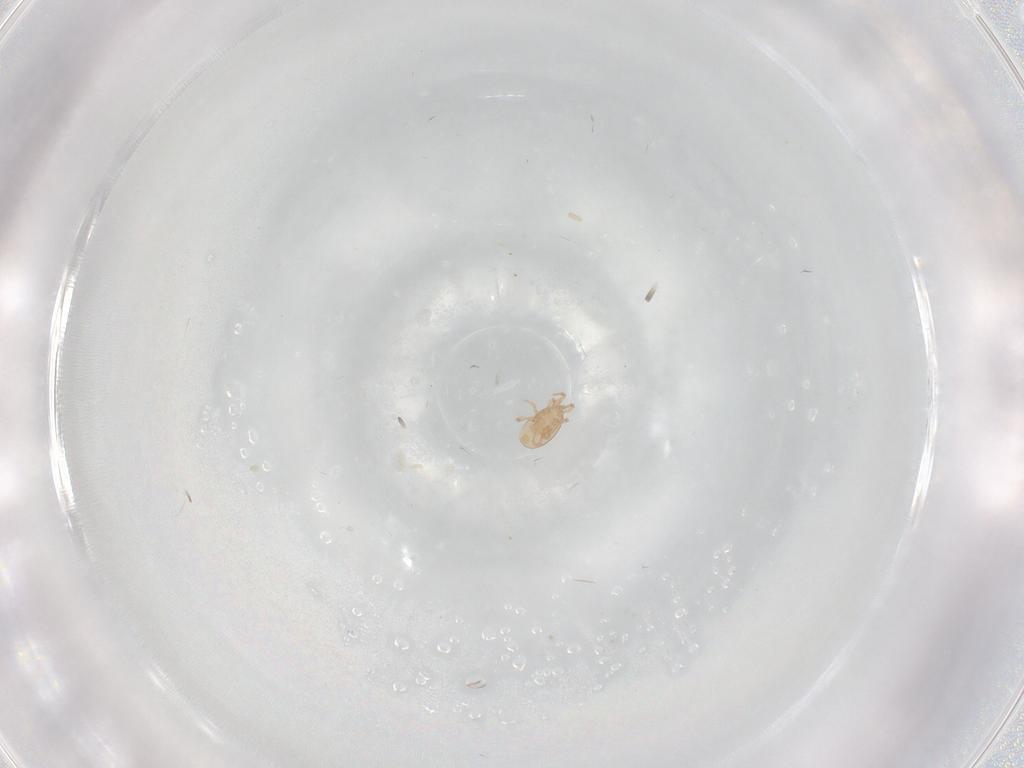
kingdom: Animalia
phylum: Arthropoda
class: Arachnida
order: Mesostigmata
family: Melicharidae
